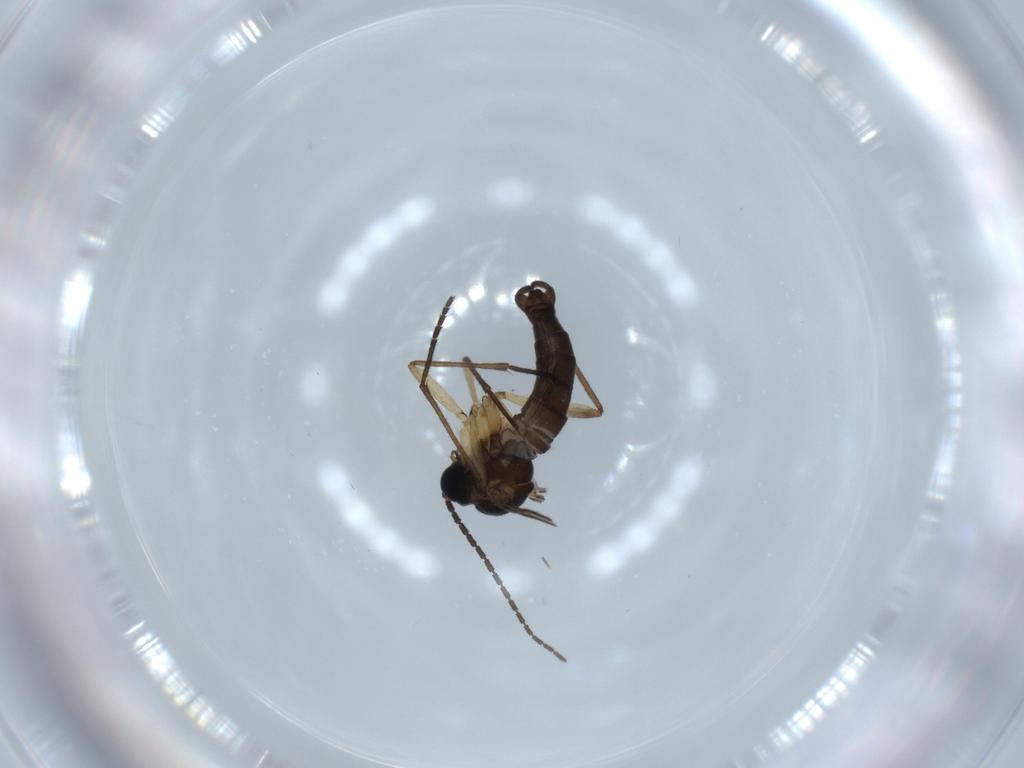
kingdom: Animalia
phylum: Arthropoda
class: Insecta
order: Diptera
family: Sciaridae
